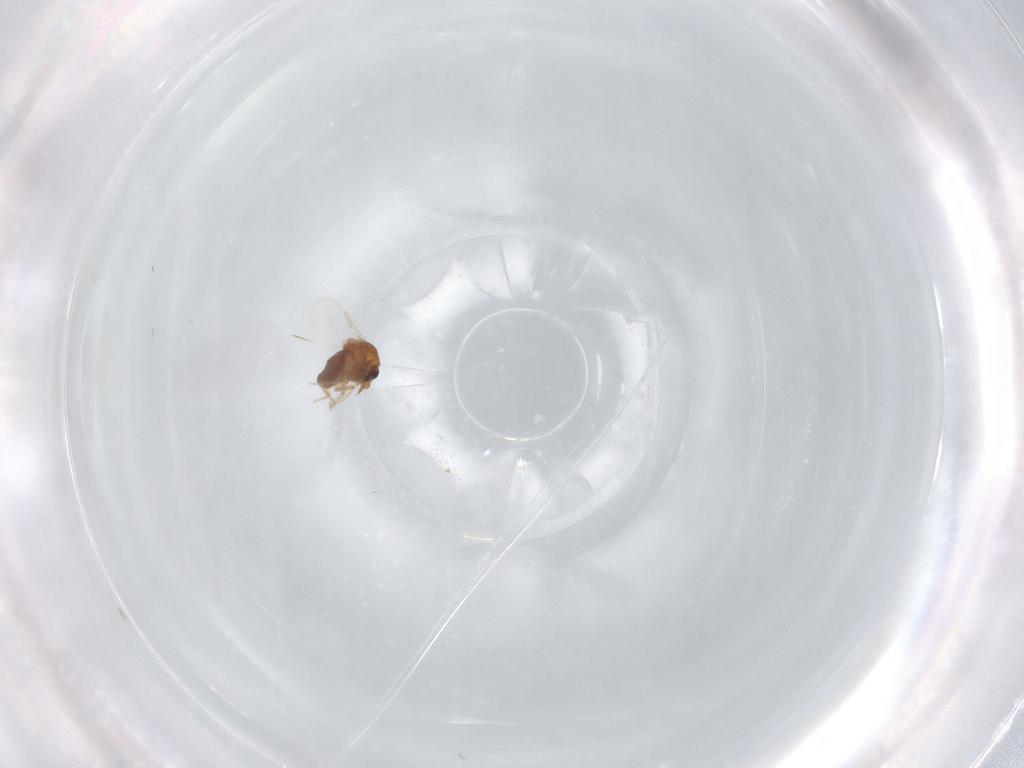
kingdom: Animalia
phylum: Arthropoda
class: Insecta
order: Diptera
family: Ceratopogonidae
